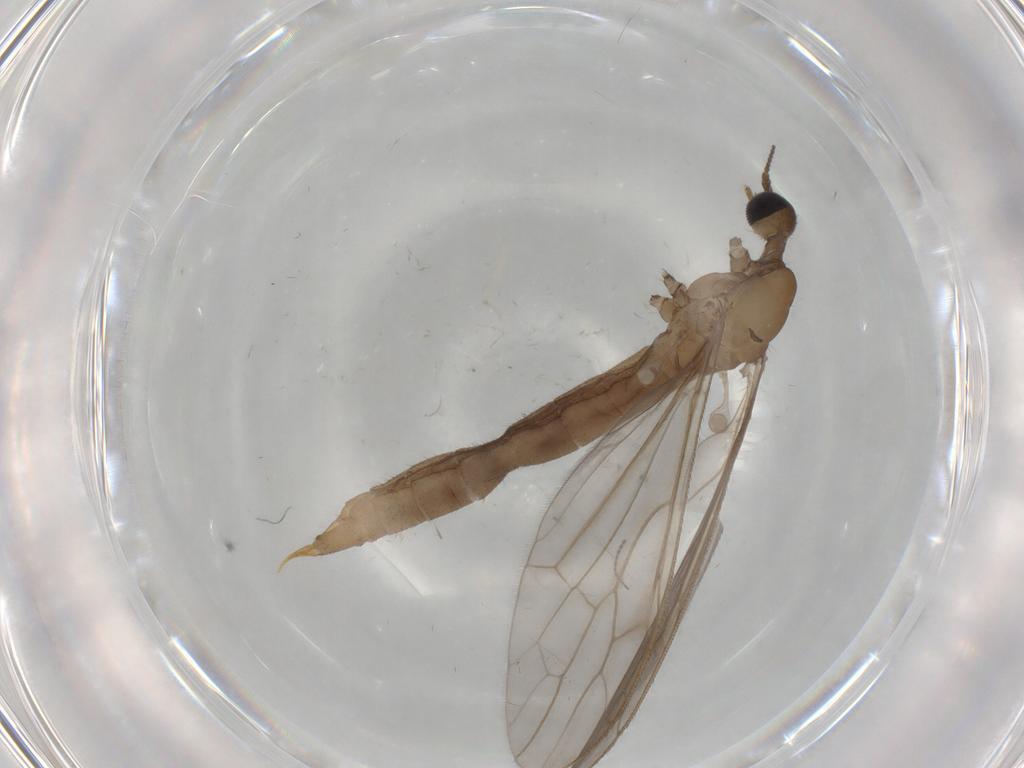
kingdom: Animalia
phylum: Arthropoda
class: Insecta
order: Diptera
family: Limoniidae
